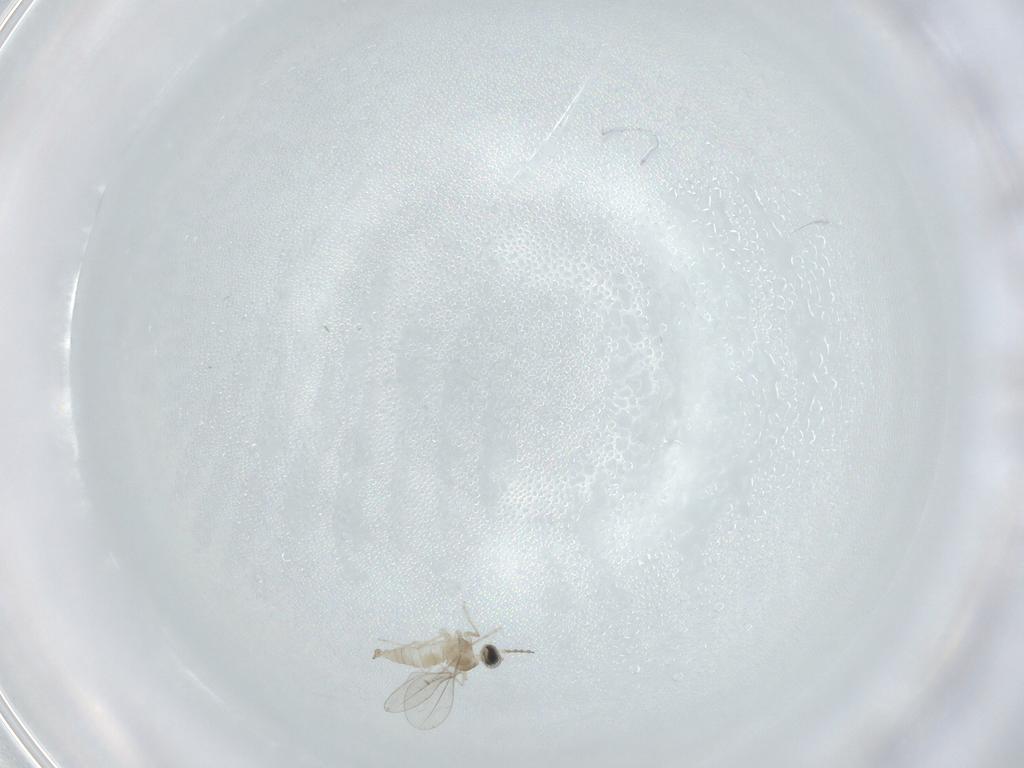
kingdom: Animalia
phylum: Arthropoda
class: Insecta
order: Diptera
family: Cecidomyiidae
